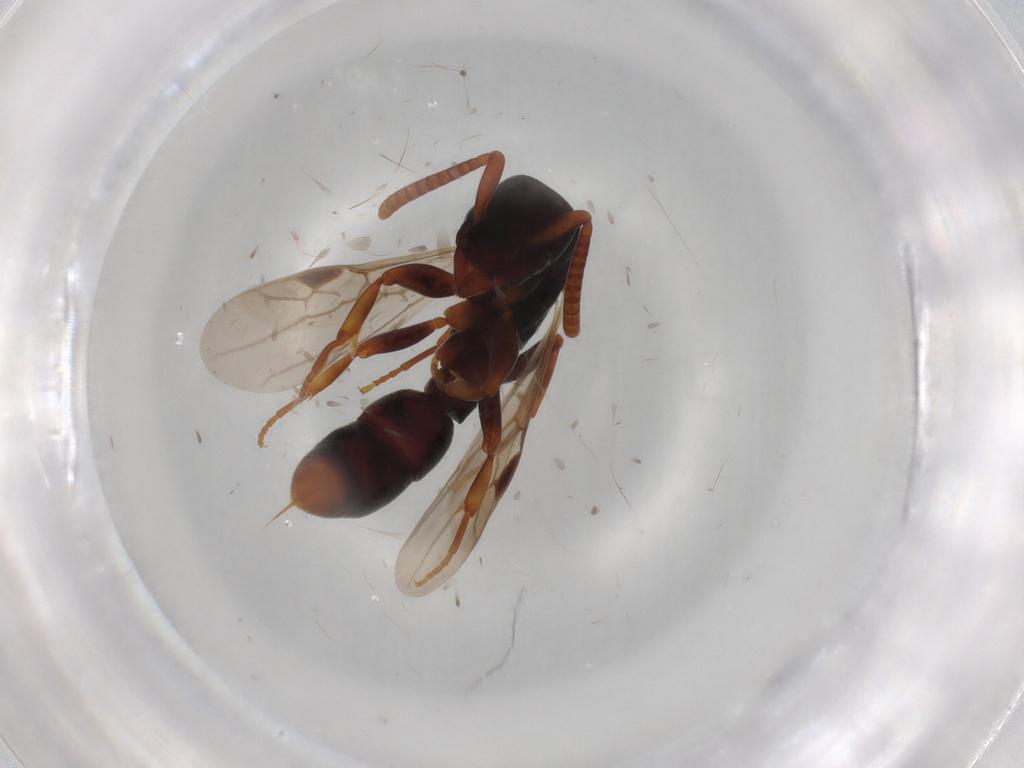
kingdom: Animalia
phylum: Arthropoda
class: Insecta
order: Hymenoptera
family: Formicidae
